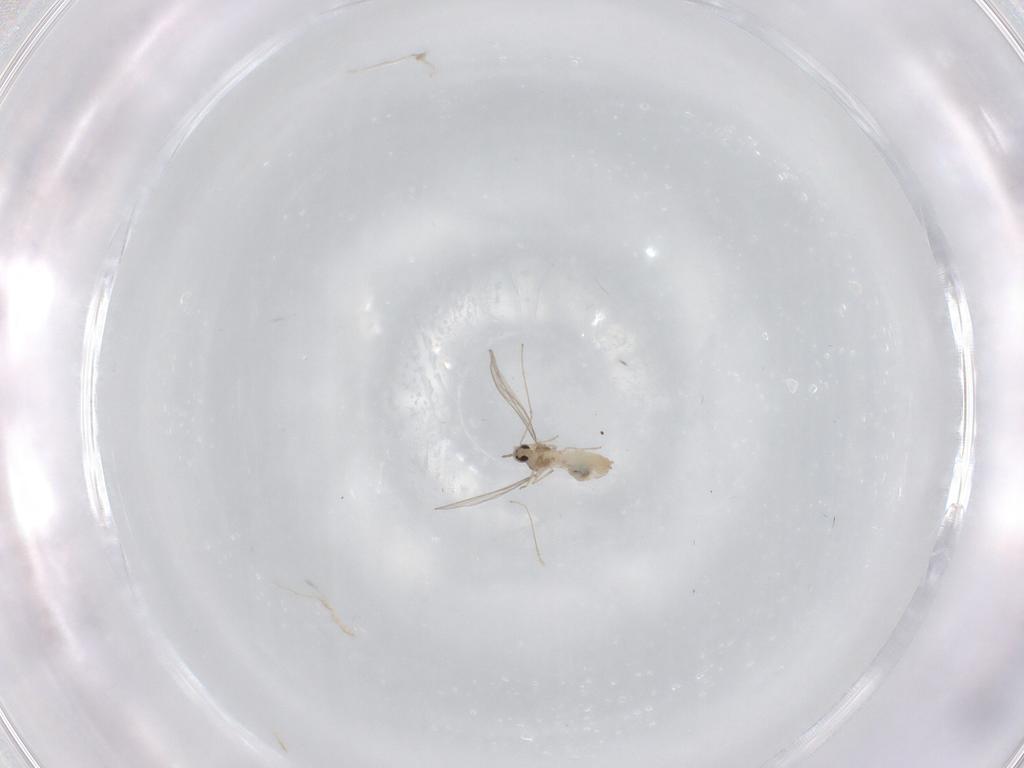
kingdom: Animalia
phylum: Arthropoda
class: Insecta
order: Diptera
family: Cecidomyiidae
